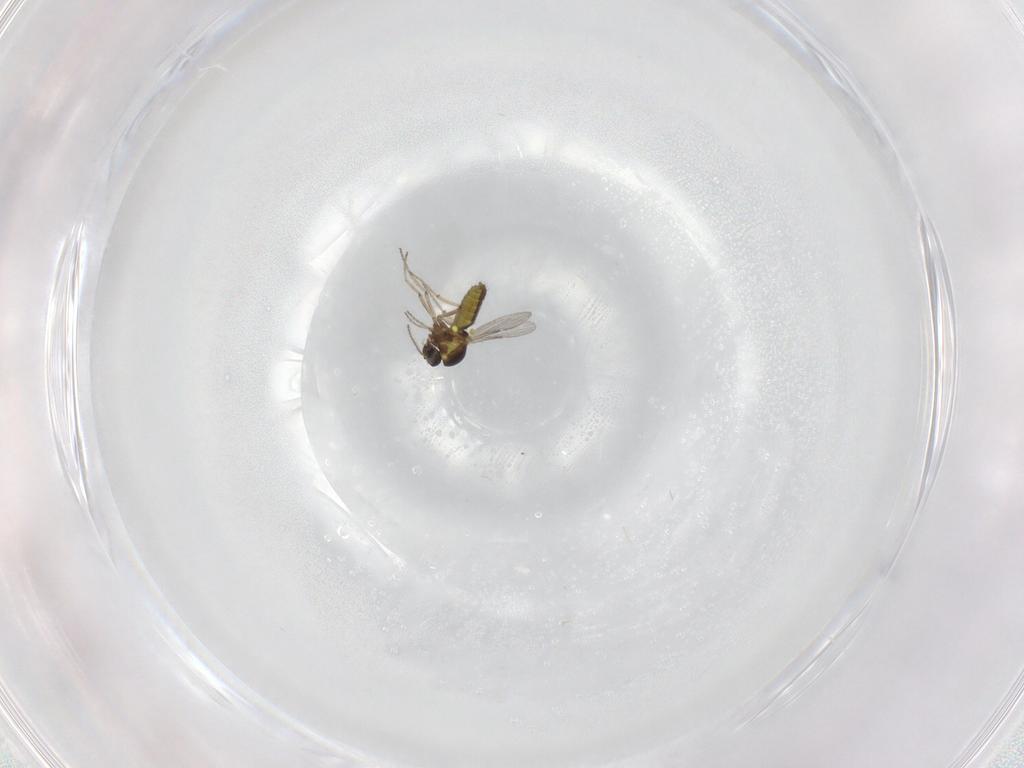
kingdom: Animalia
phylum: Arthropoda
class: Insecta
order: Diptera
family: Ceratopogonidae
